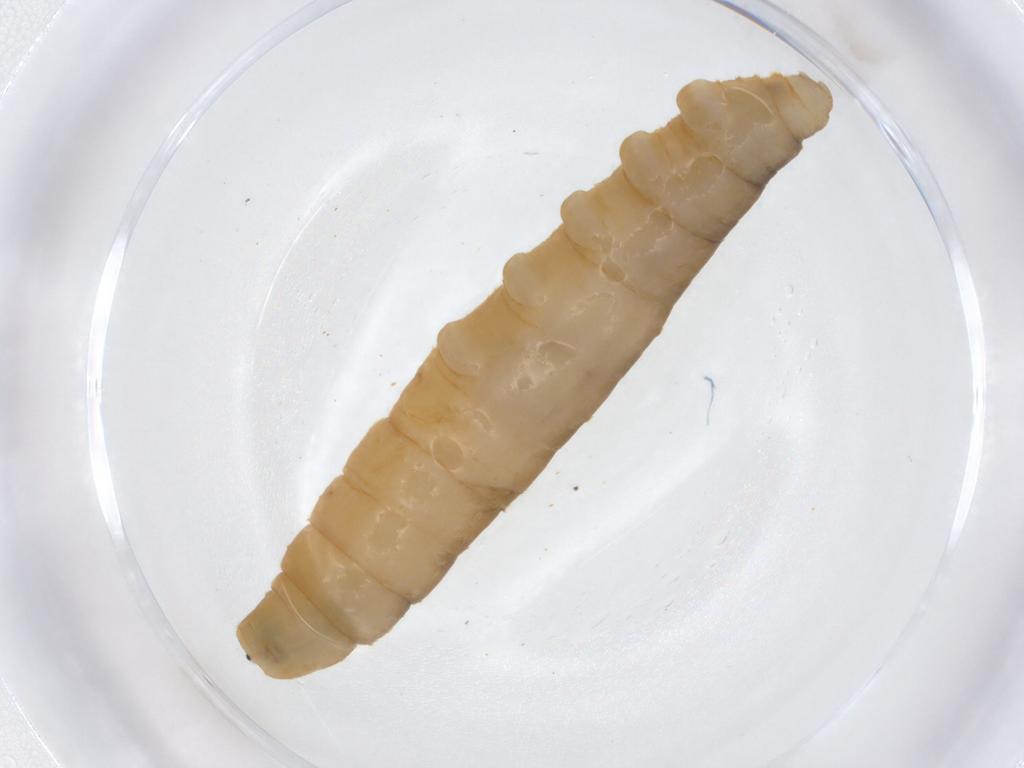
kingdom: Animalia
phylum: Arthropoda
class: Insecta
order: Diptera
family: Pediciidae
